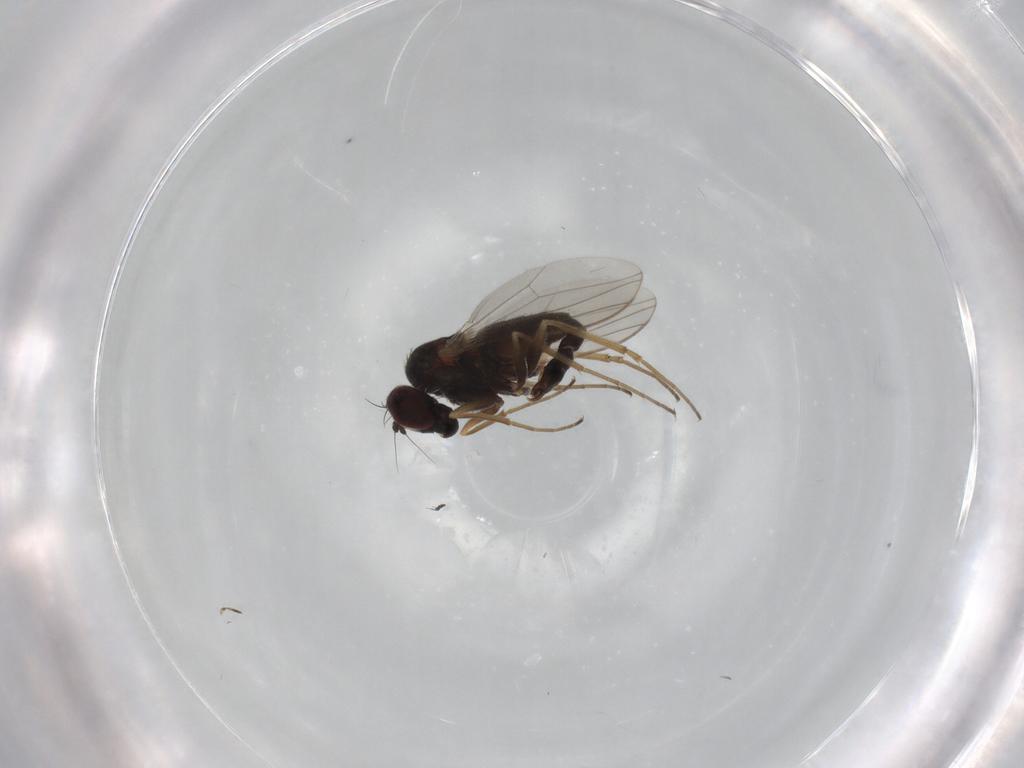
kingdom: Animalia
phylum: Arthropoda
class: Insecta
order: Diptera
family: Dolichopodidae
